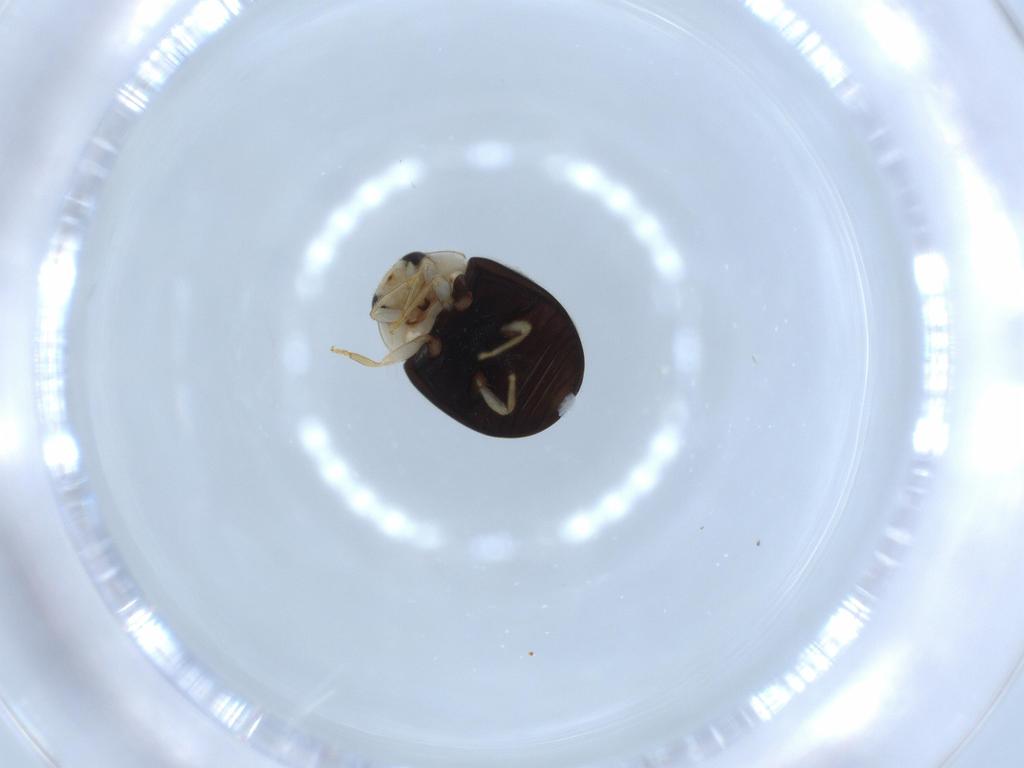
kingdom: Animalia
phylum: Arthropoda
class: Insecta
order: Coleoptera
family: Coccinellidae
